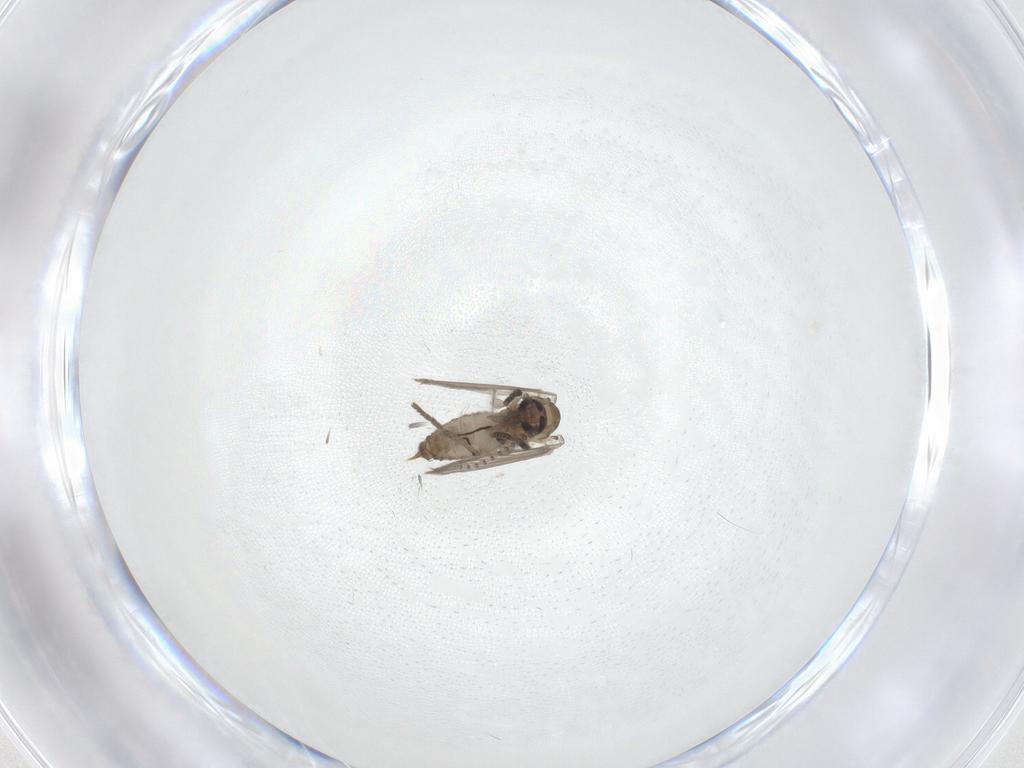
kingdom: Animalia
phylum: Arthropoda
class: Insecta
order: Diptera
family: Psychodidae
